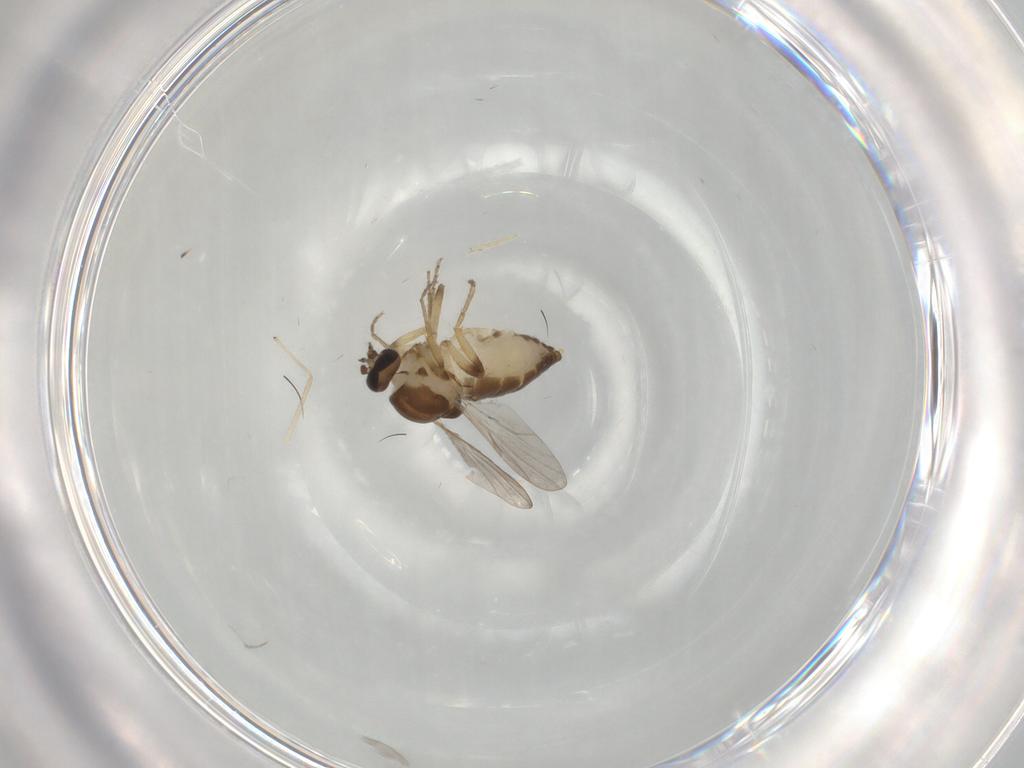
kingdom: Animalia
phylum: Arthropoda
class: Insecta
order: Diptera
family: Ceratopogonidae
